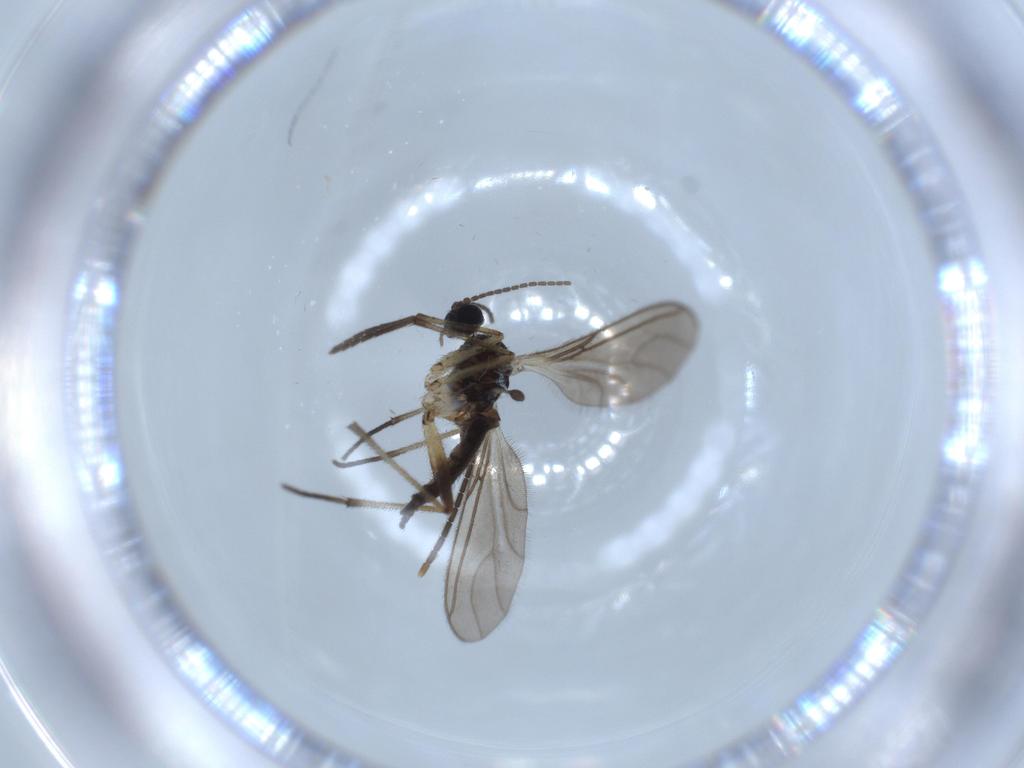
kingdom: Animalia
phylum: Arthropoda
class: Insecta
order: Diptera
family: Sciaridae
